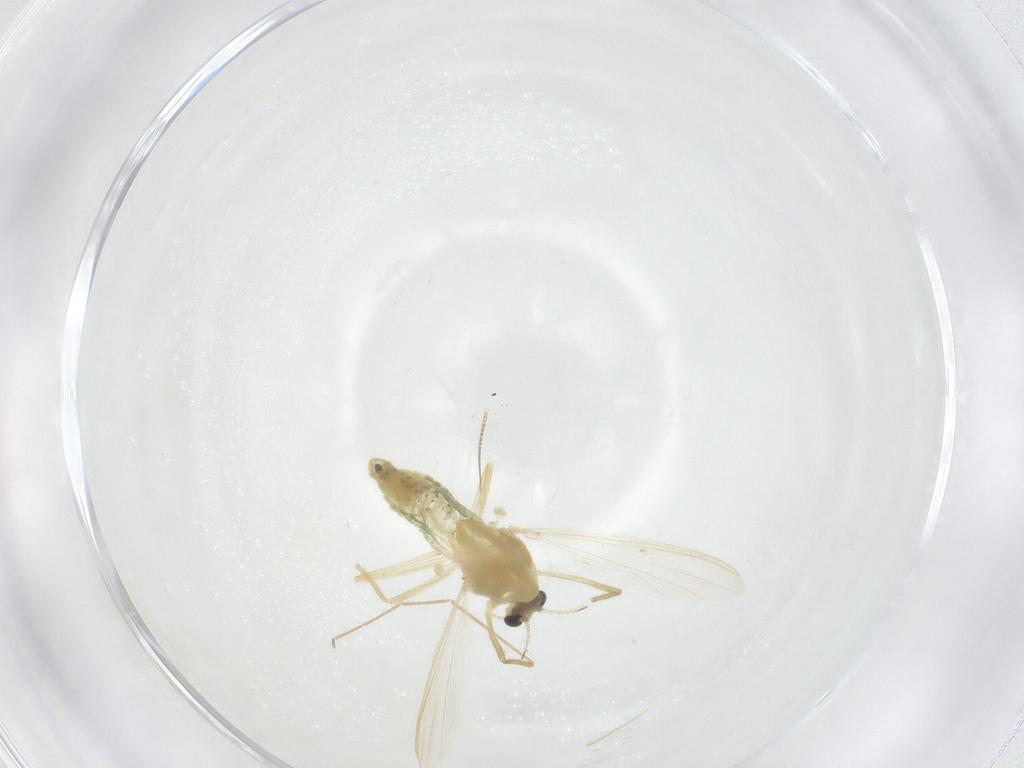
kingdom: Animalia
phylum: Arthropoda
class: Insecta
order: Diptera
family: Chironomidae
